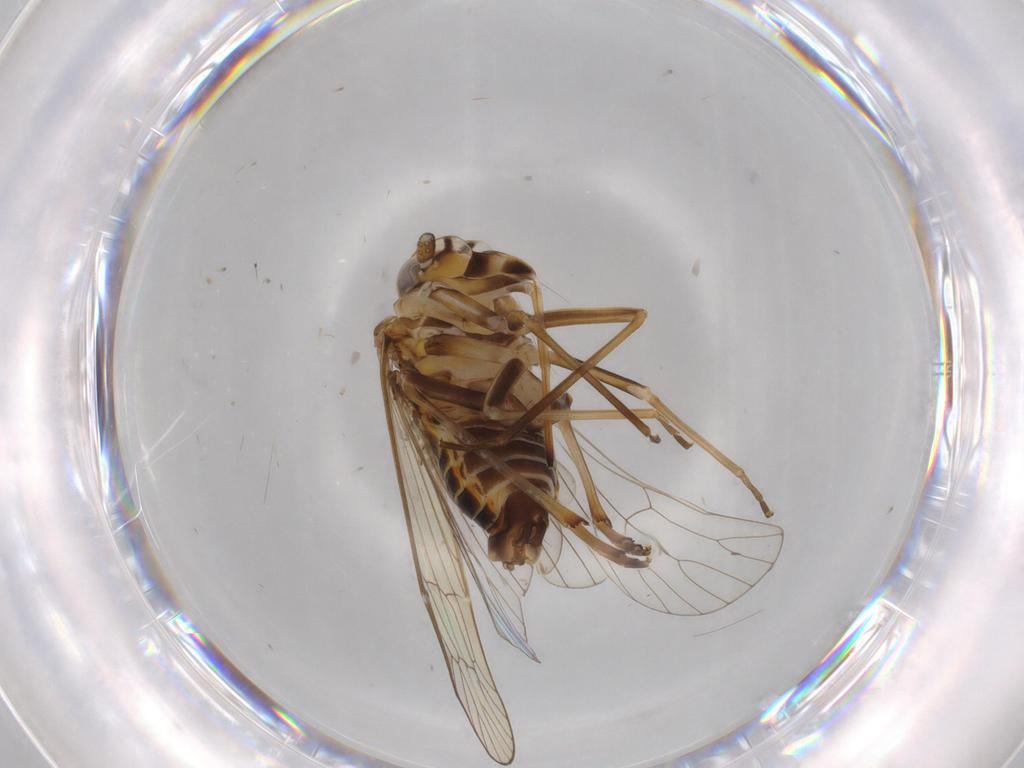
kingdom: Animalia
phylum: Arthropoda
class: Insecta
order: Hemiptera
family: Kinnaridae
